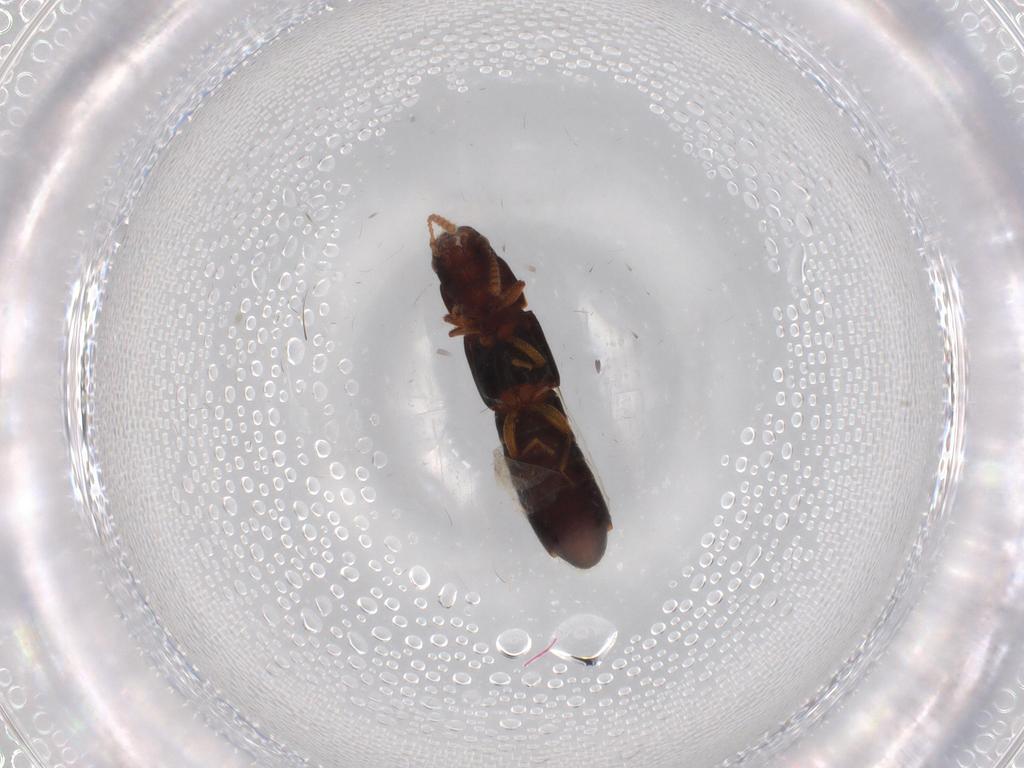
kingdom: Animalia
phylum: Arthropoda
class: Insecta
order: Coleoptera
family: Staphylinidae
